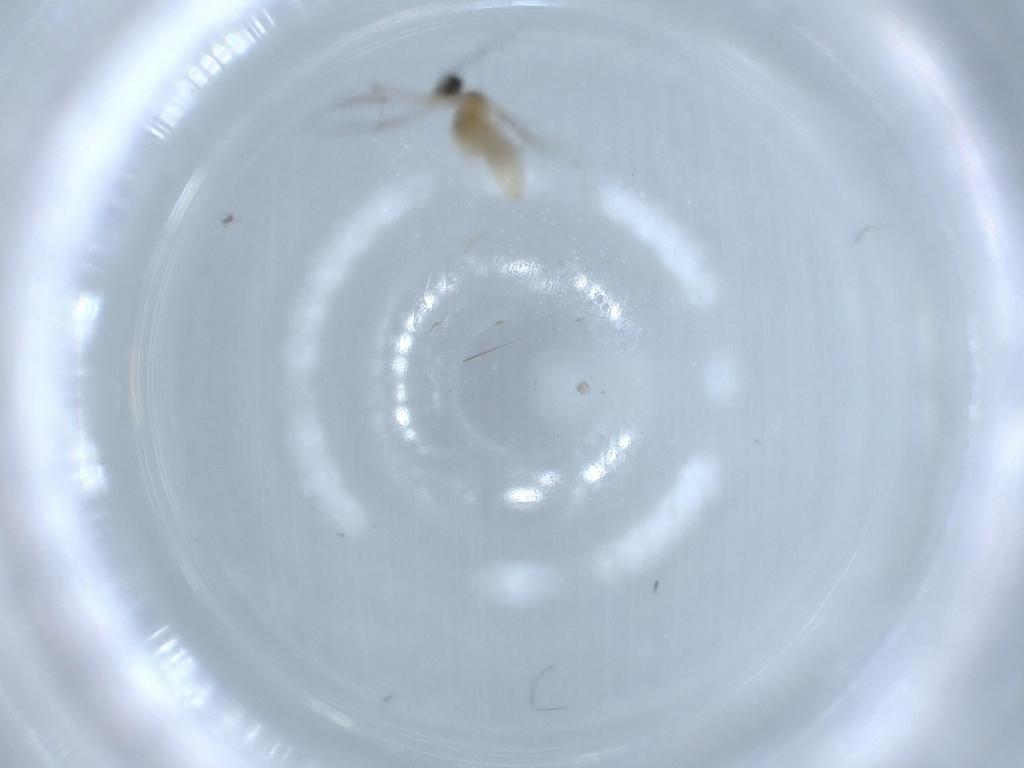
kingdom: Animalia
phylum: Arthropoda
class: Insecta
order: Diptera
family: Cecidomyiidae
